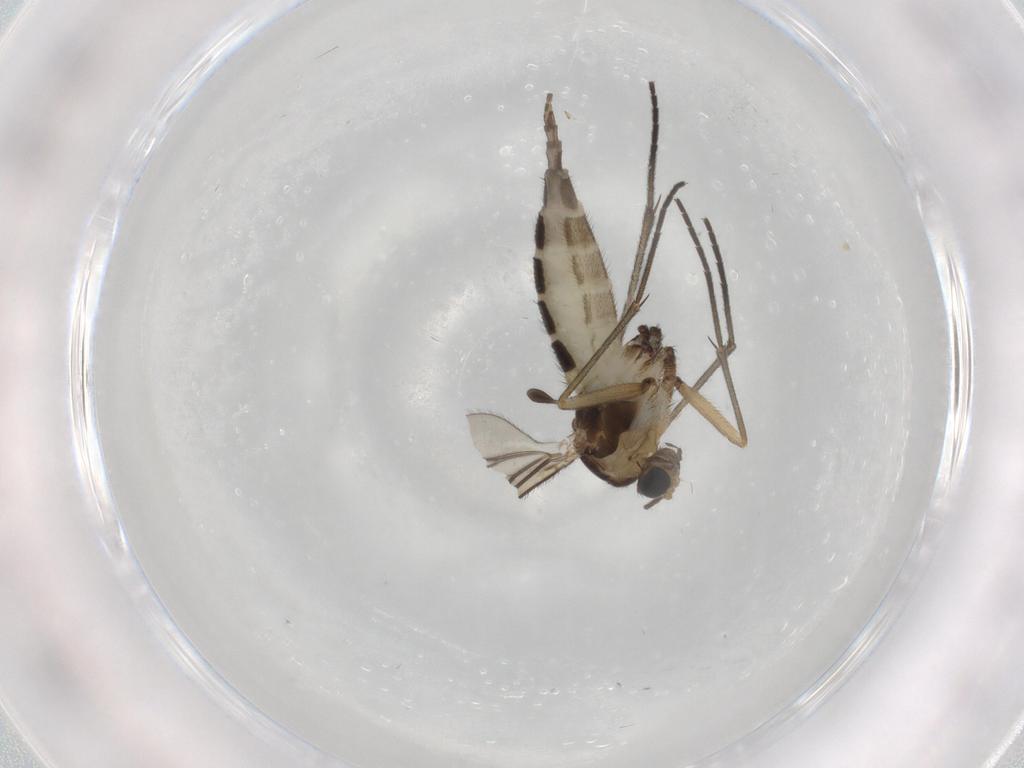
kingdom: Animalia
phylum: Arthropoda
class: Insecta
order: Diptera
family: Sciaridae
